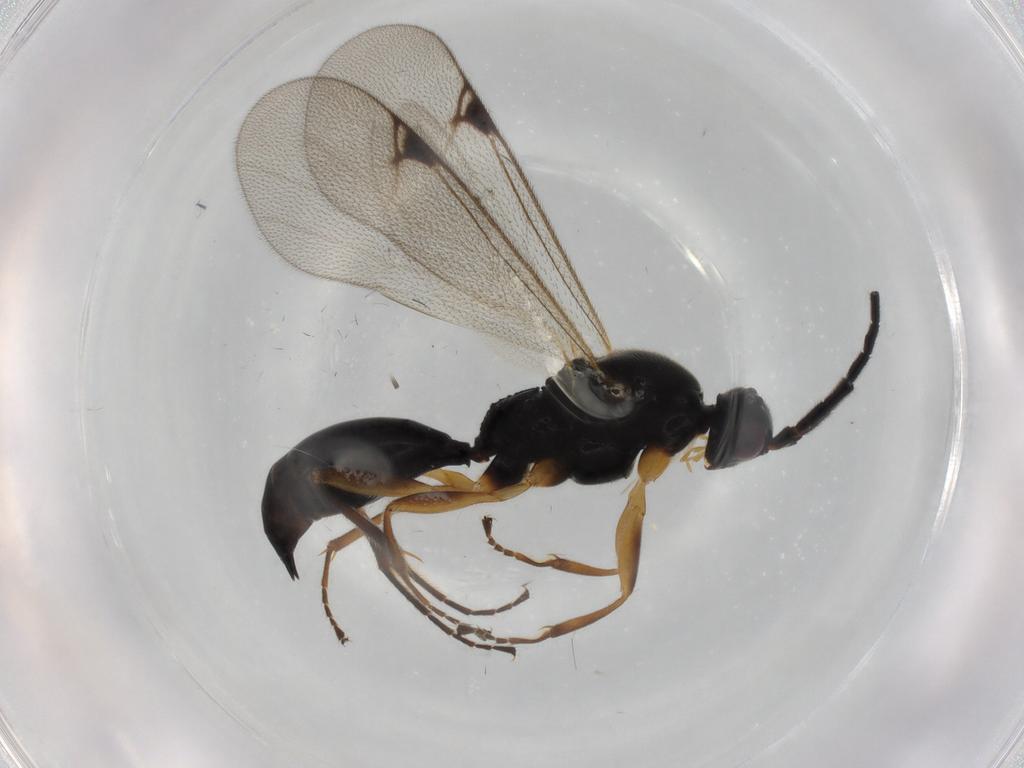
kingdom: Animalia
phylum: Arthropoda
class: Insecta
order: Hymenoptera
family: Proctotrupidae
